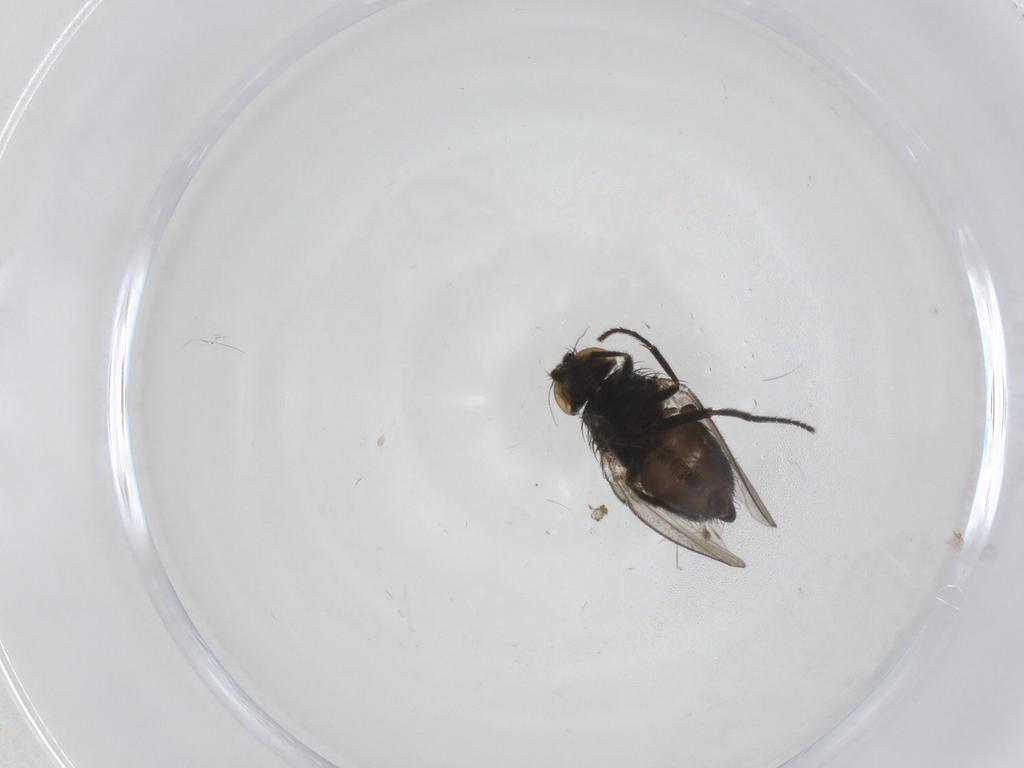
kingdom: Animalia
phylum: Arthropoda
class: Insecta
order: Diptera
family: Milichiidae
